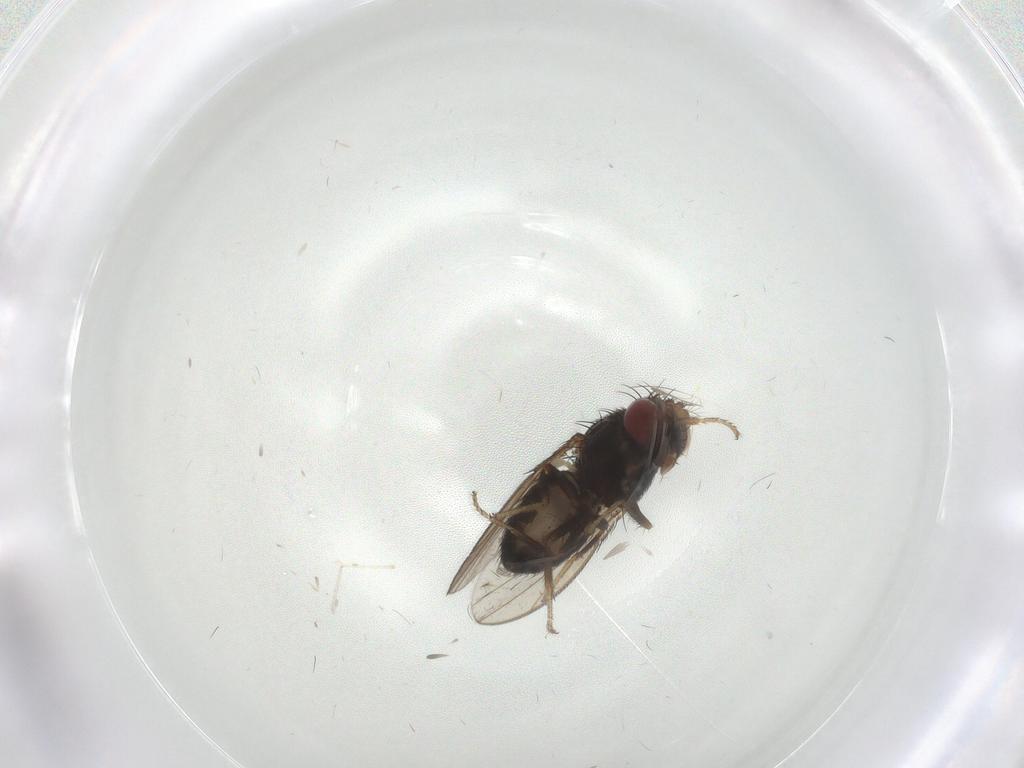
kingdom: Animalia
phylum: Arthropoda
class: Insecta
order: Diptera
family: Ephydridae
